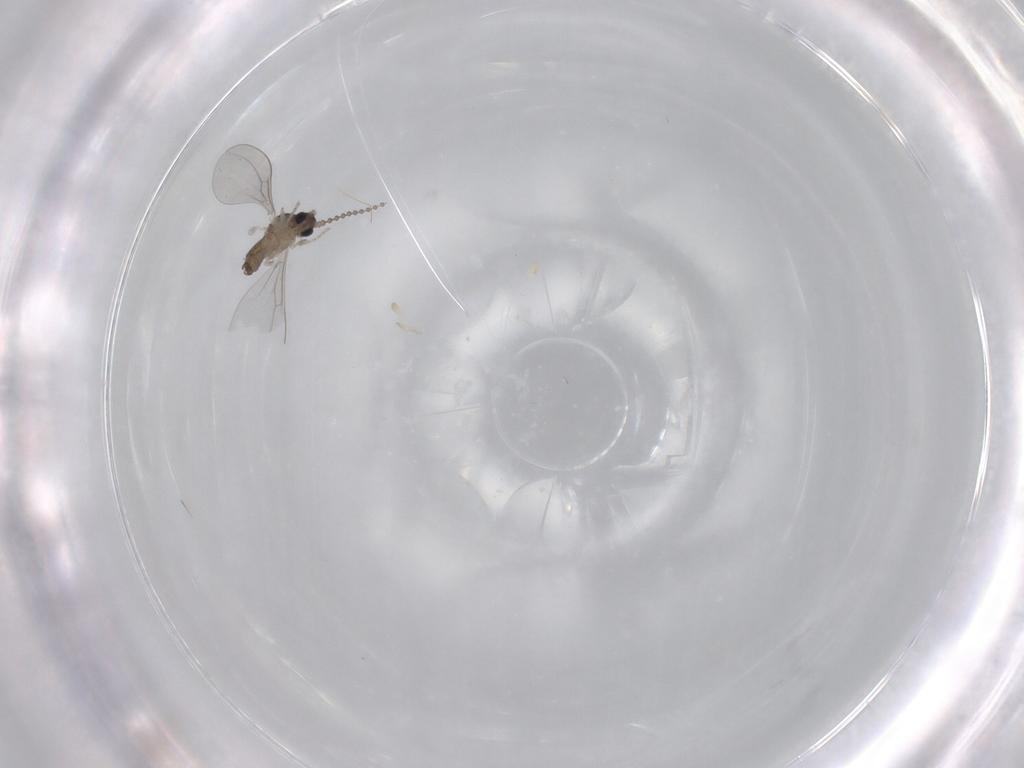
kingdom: Animalia
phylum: Arthropoda
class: Insecta
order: Diptera
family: Cecidomyiidae
